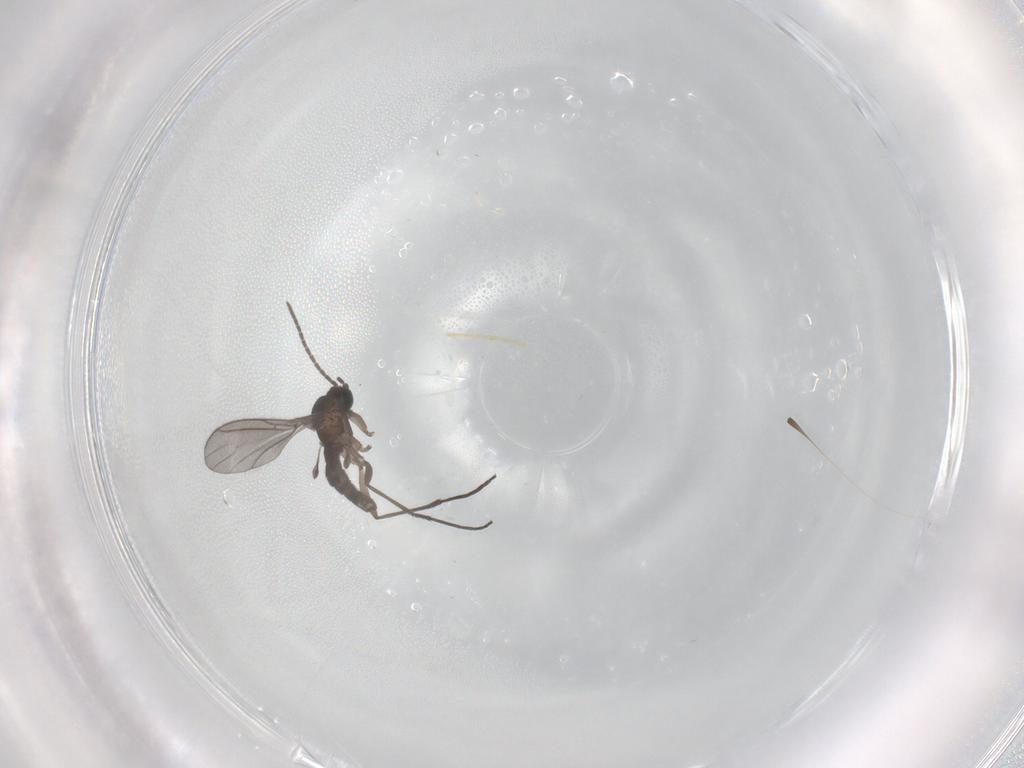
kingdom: Animalia
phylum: Arthropoda
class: Insecta
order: Diptera
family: Sciaridae
